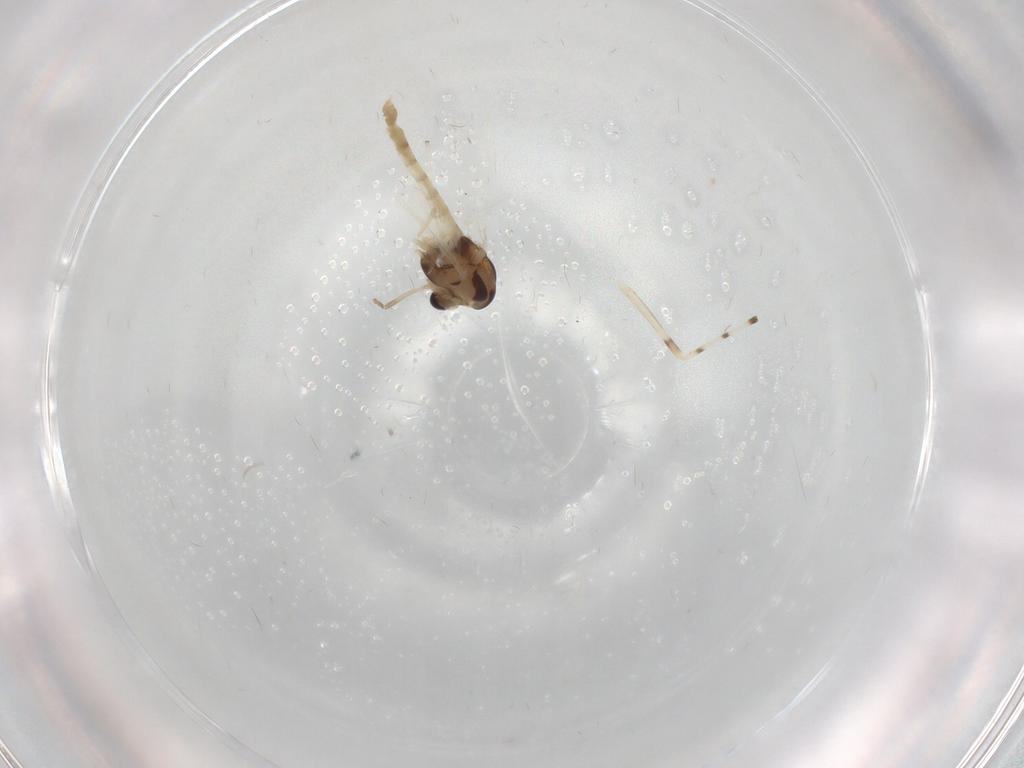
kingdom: Animalia
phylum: Arthropoda
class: Insecta
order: Diptera
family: Chironomidae
